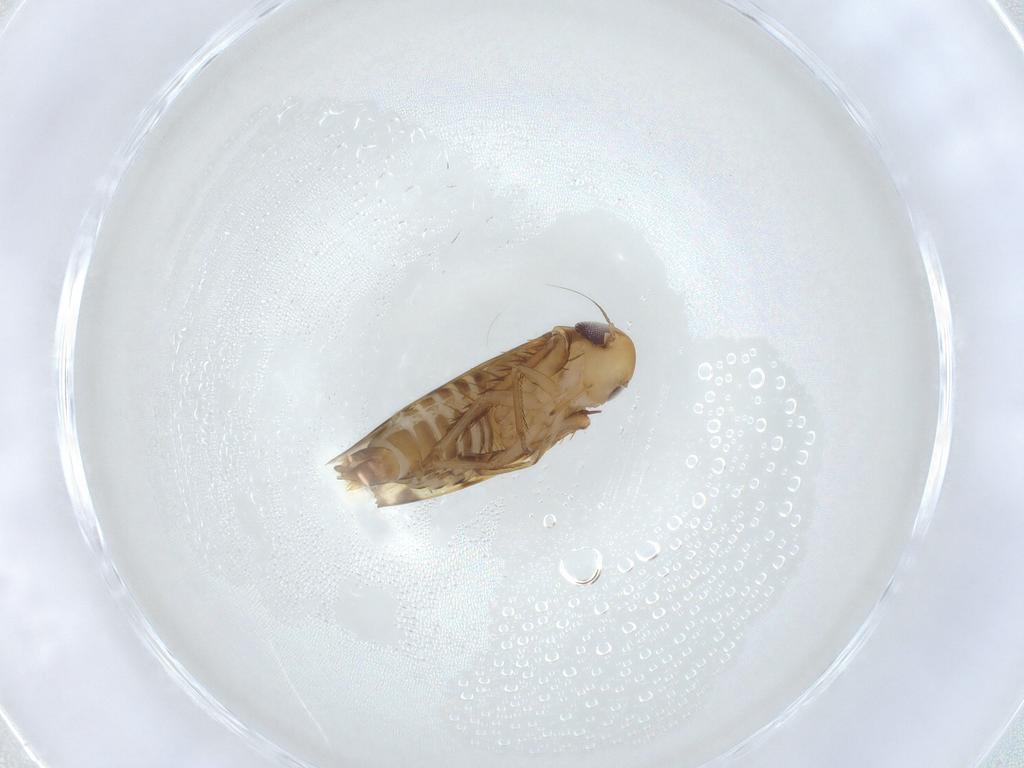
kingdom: Animalia
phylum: Arthropoda
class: Insecta
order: Hemiptera
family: Cicadellidae
